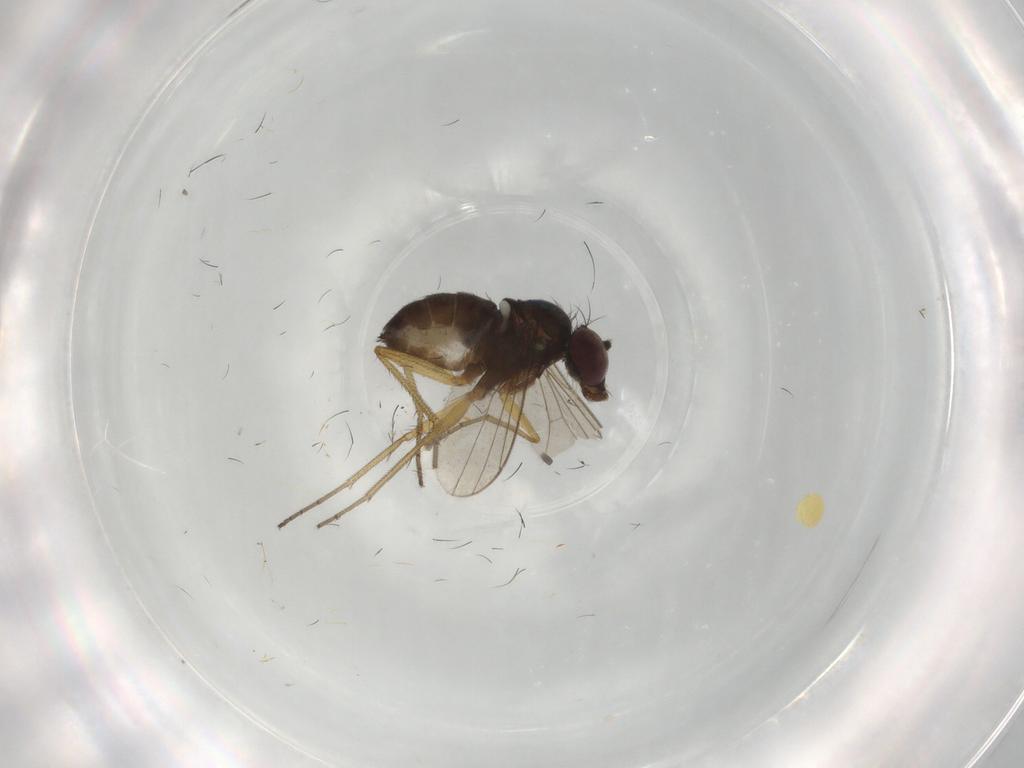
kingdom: Animalia
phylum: Arthropoda
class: Insecta
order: Diptera
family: Dolichopodidae
